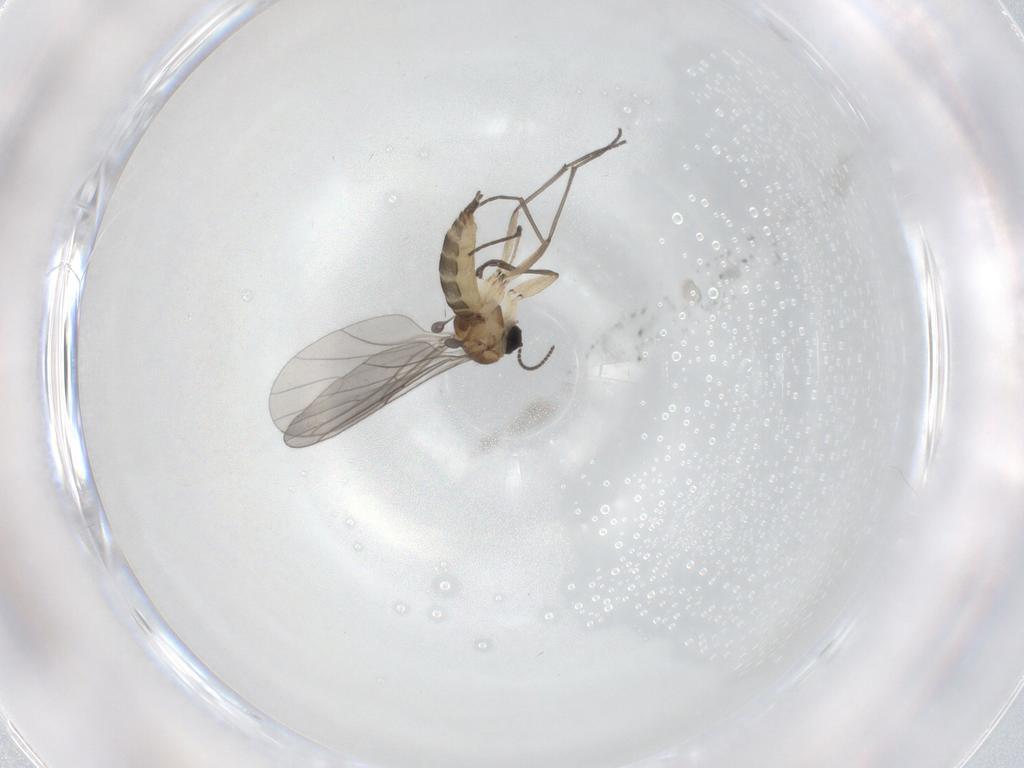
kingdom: Animalia
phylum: Arthropoda
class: Insecta
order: Diptera
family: Sciaridae
